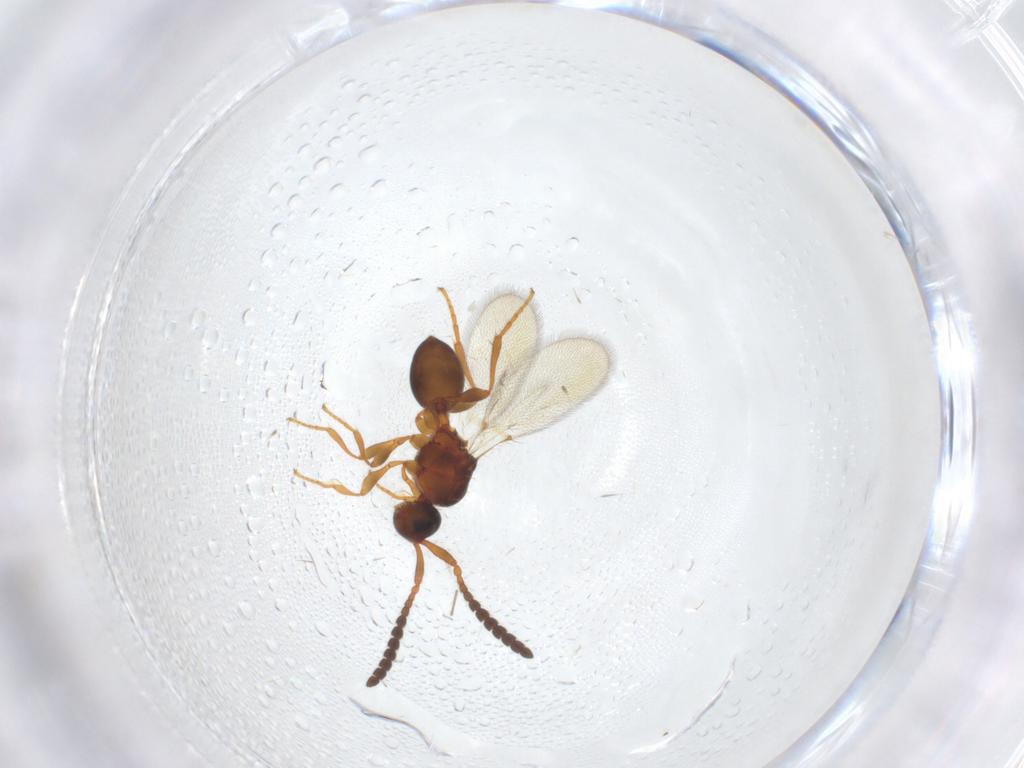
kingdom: Animalia
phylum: Arthropoda
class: Insecta
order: Hymenoptera
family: Diapriidae
